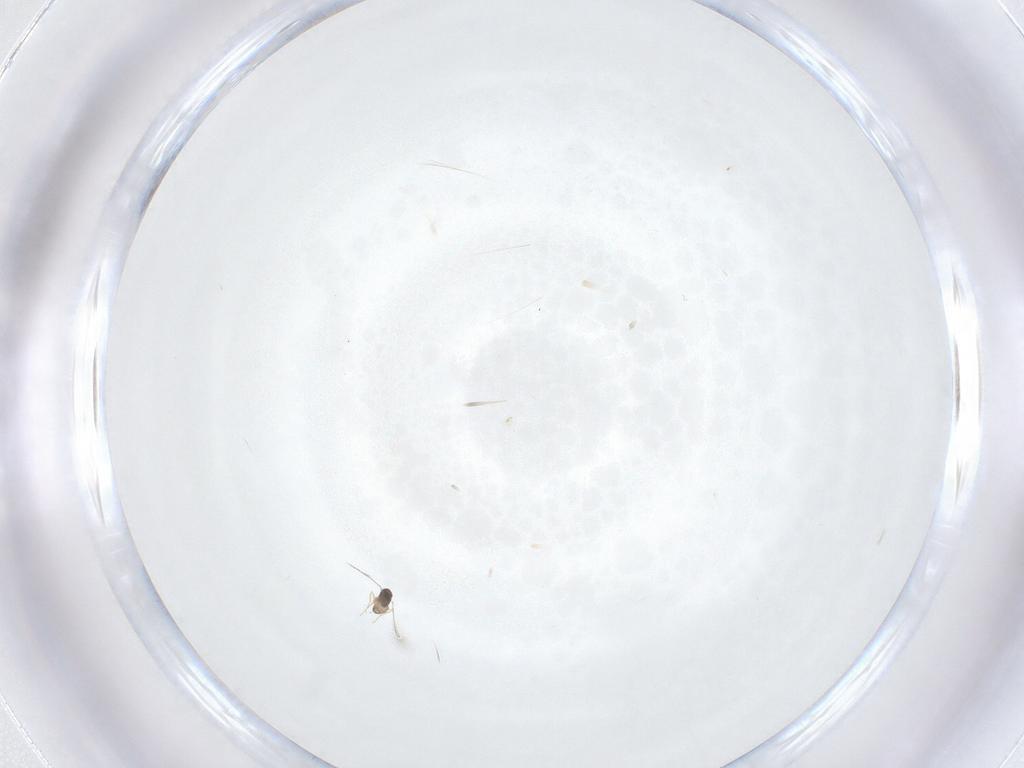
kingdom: Animalia
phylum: Arthropoda
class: Insecta
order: Hymenoptera
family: Mymaridae
